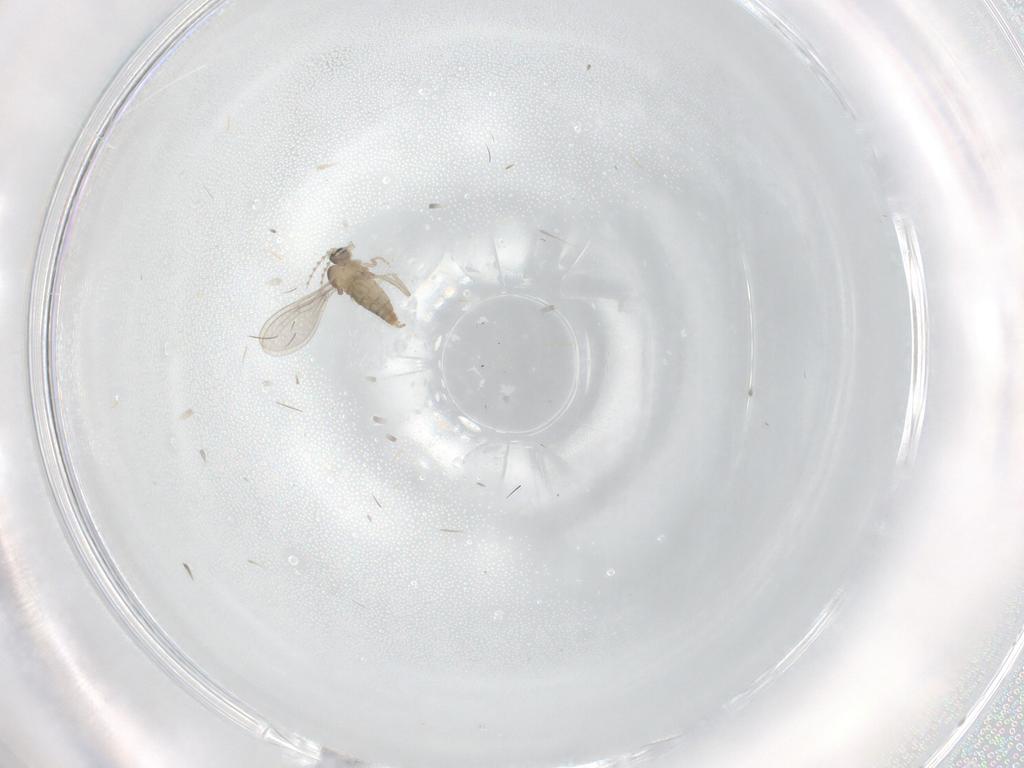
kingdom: Animalia
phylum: Arthropoda
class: Insecta
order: Diptera
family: Cecidomyiidae
